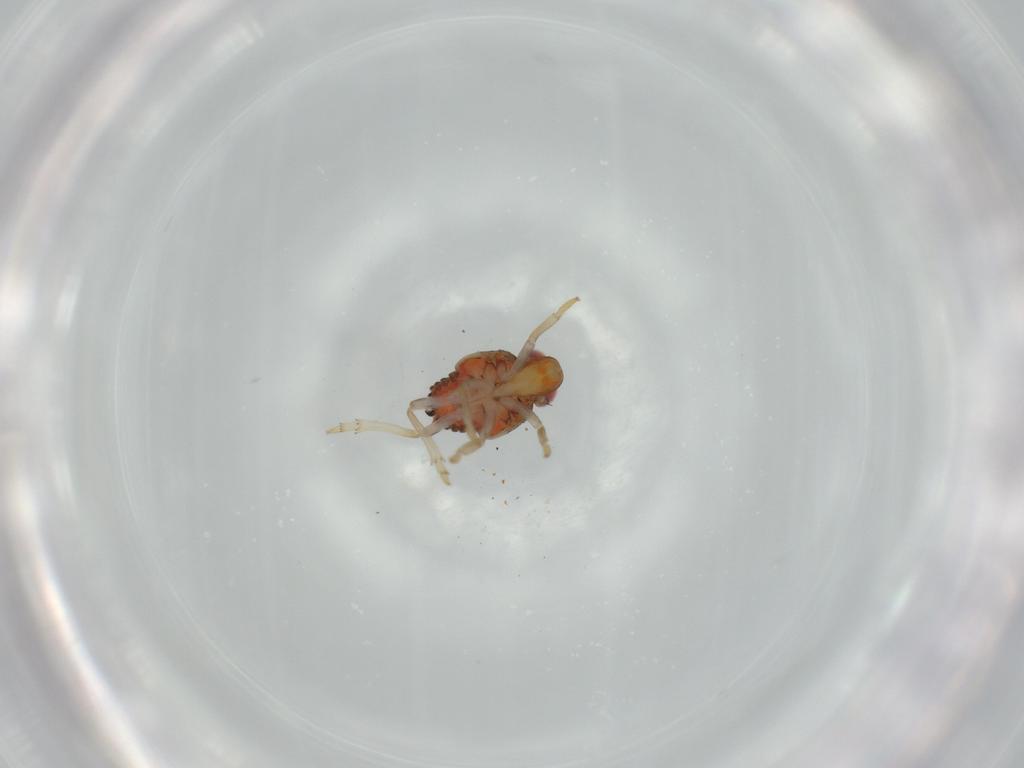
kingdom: Animalia
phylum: Arthropoda
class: Insecta
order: Hemiptera
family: Issidae
